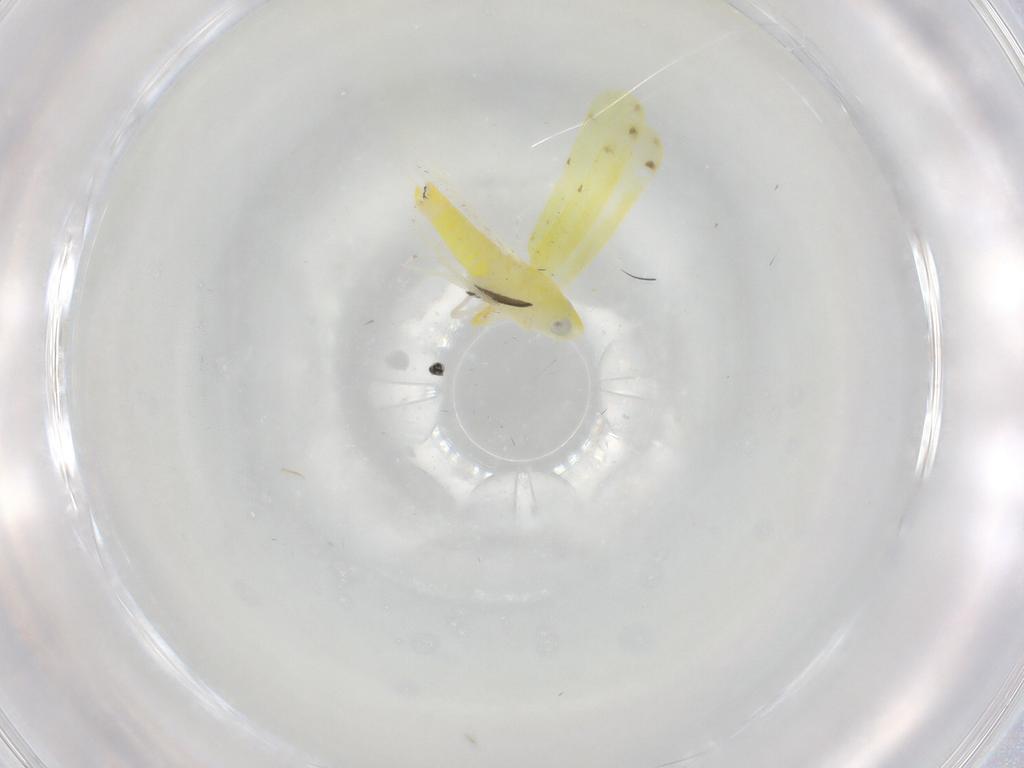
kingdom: Animalia
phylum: Arthropoda
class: Insecta
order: Hemiptera
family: Cicadellidae
